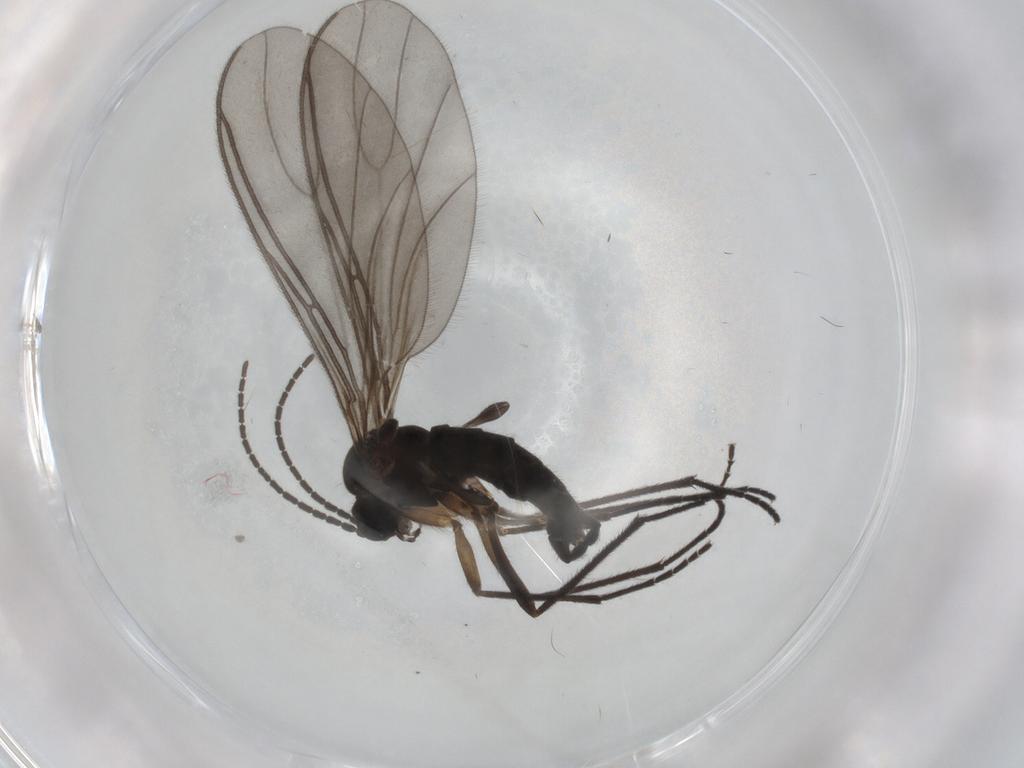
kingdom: Animalia
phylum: Arthropoda
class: Insecta
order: Diptera
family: Sciaridae
